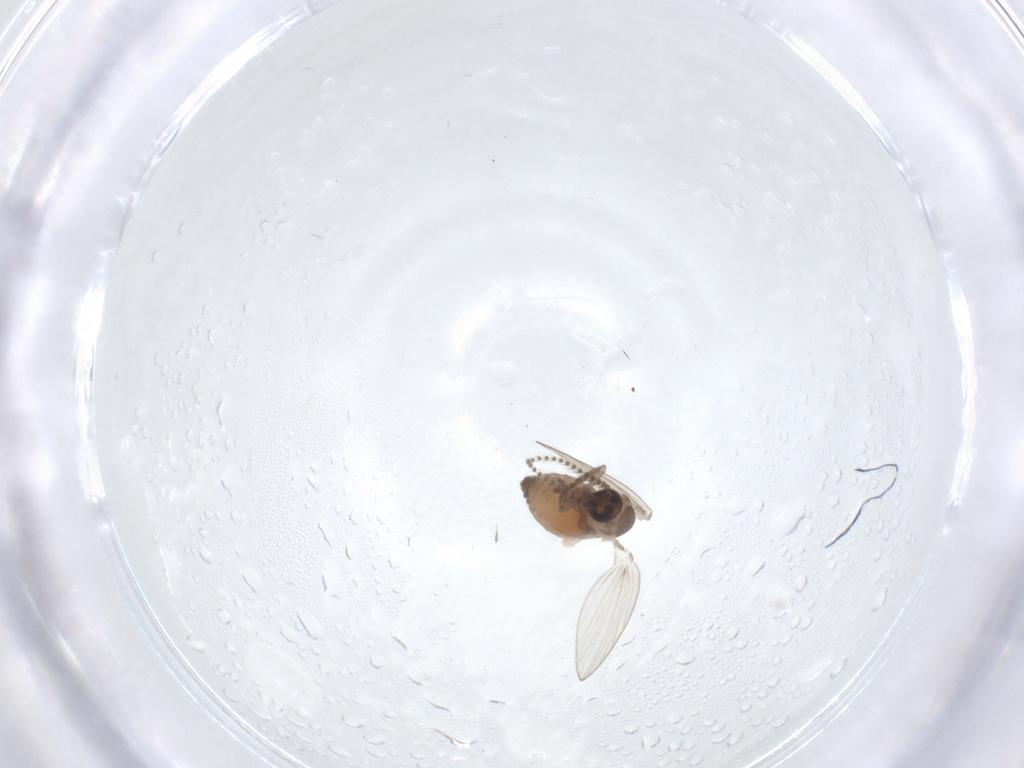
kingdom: Animalia
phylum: Arthropoda
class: Insecta
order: Diptera
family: Psychodidae
